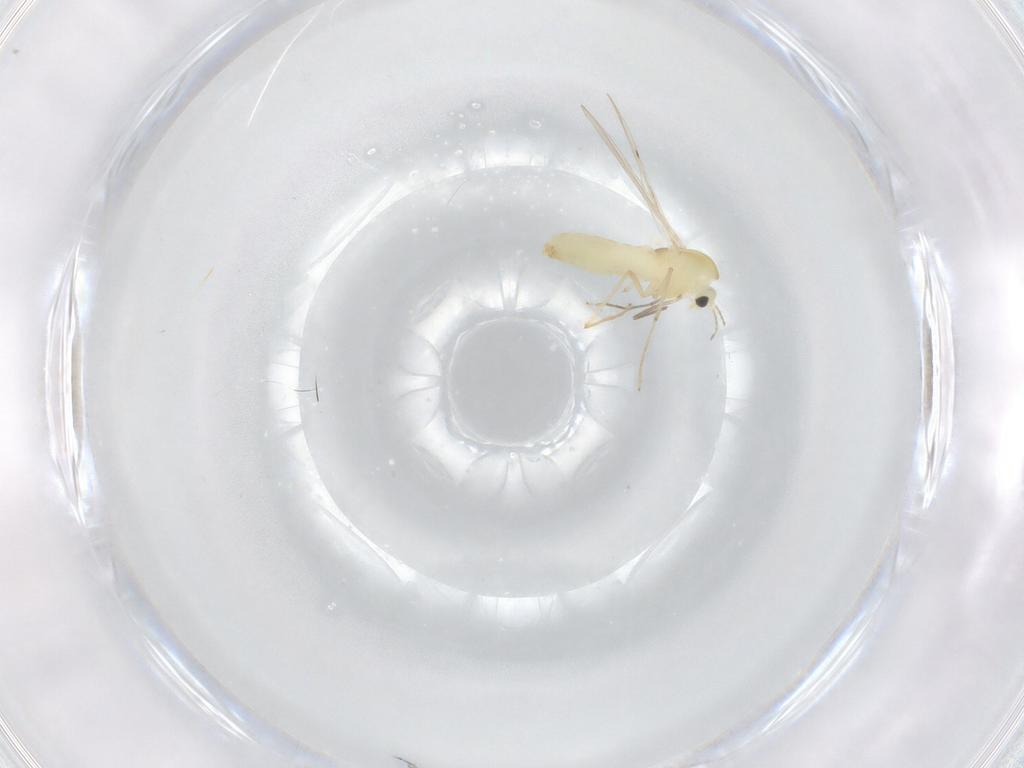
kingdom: Animalia
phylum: Arthropoda
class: Insecta
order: Diptera
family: Chironomidae
